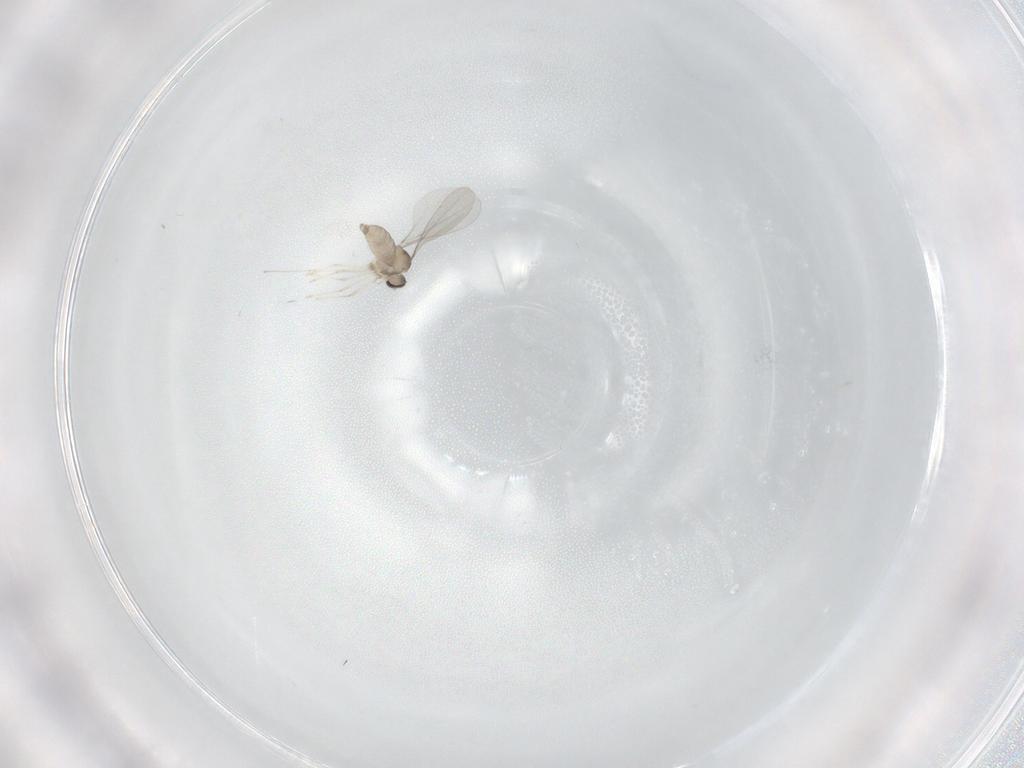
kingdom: Animalia
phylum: Arthropoda
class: Insecta
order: Diptera
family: Cecidomyiidae
